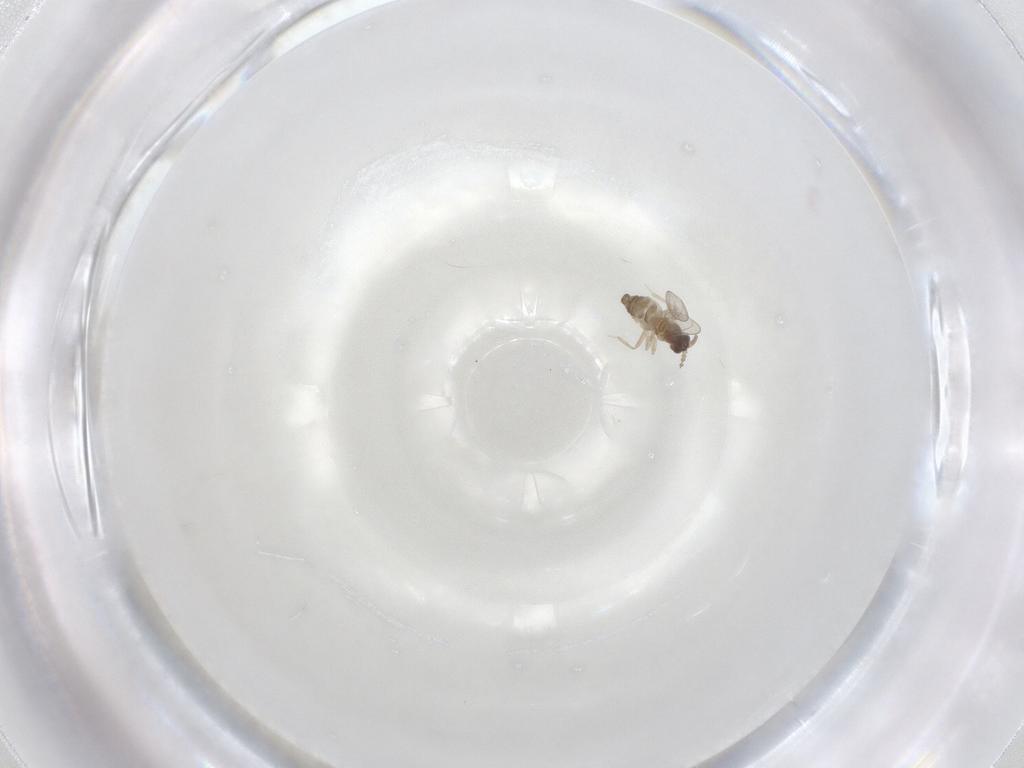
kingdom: Animalia
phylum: Arthropoda
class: Insecta
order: Diptera
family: Cecidomyiidae
